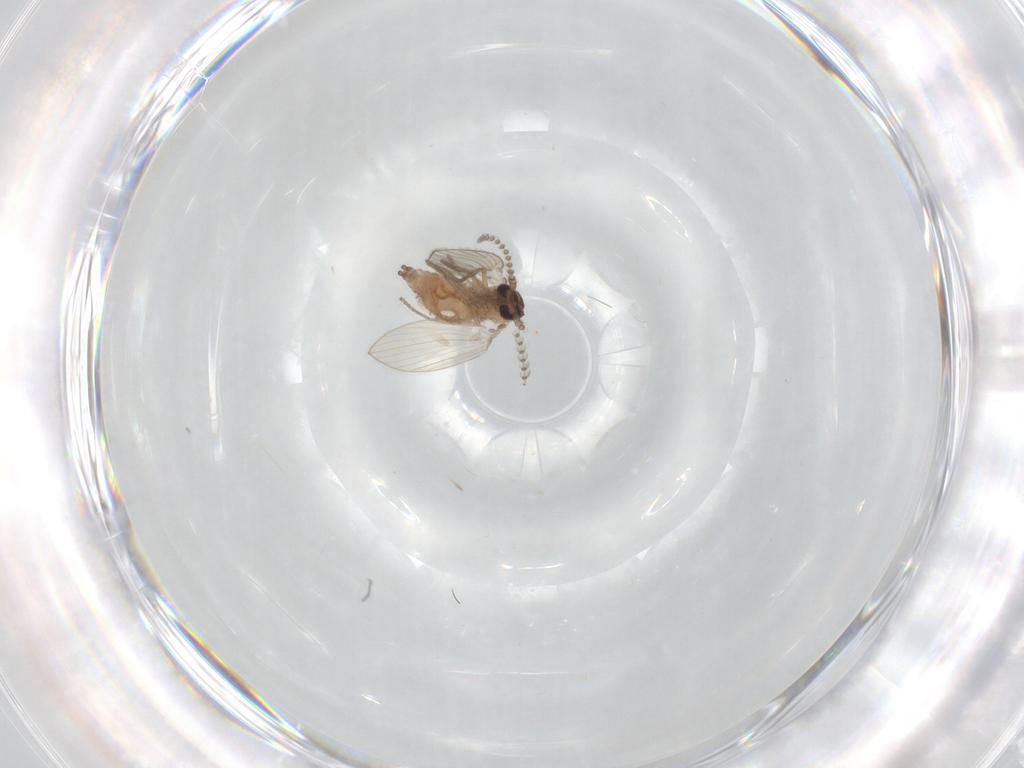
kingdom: Animalia
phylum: Arthropoda
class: Insecta
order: Diptera
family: Psychodidae
